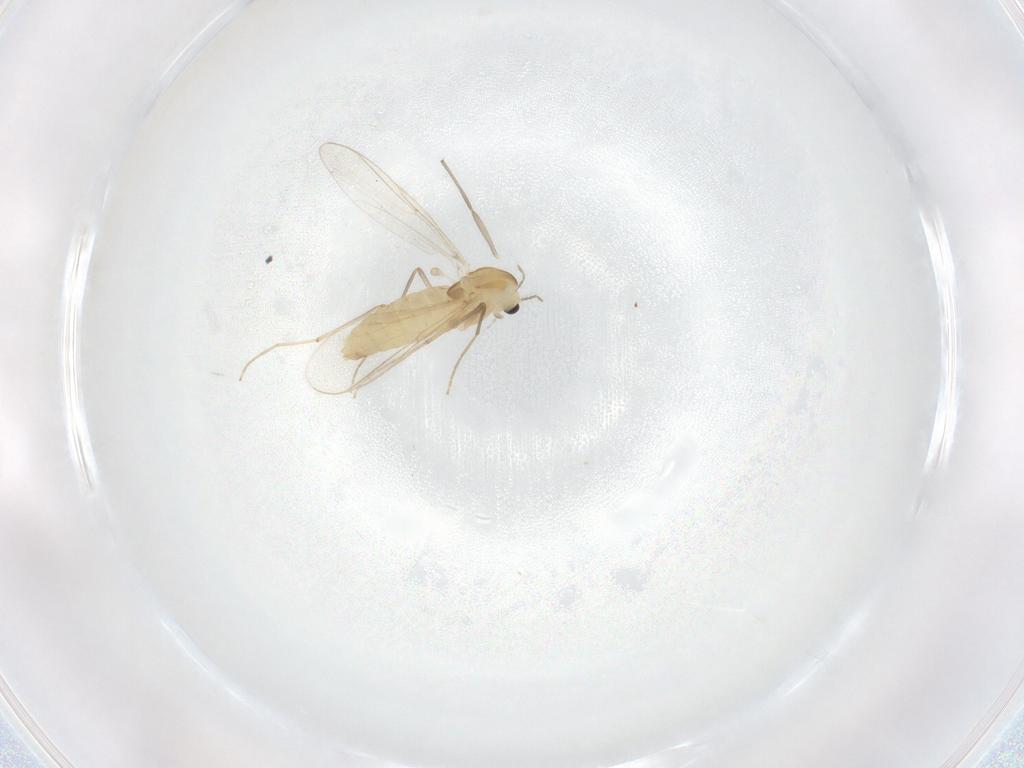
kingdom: Animalia
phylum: Arthropoda
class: Insecta
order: Diptera
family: Chironomidae
